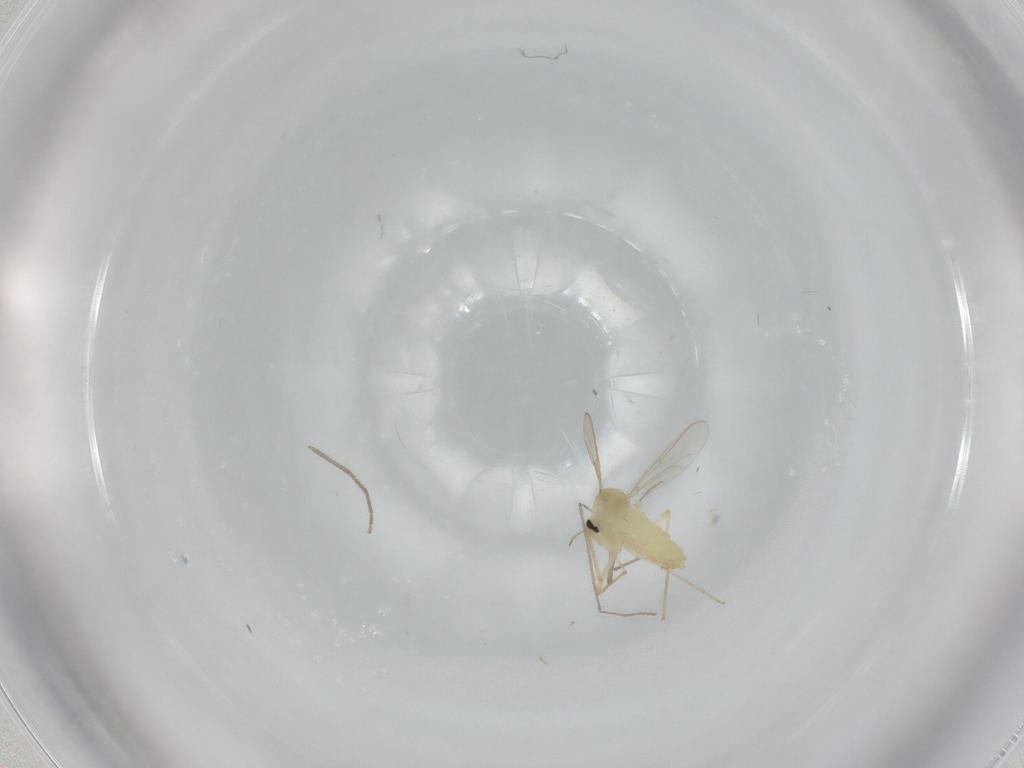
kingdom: Animalia
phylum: Arthropoda
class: Insecta
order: Diptera
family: Chironomidae
